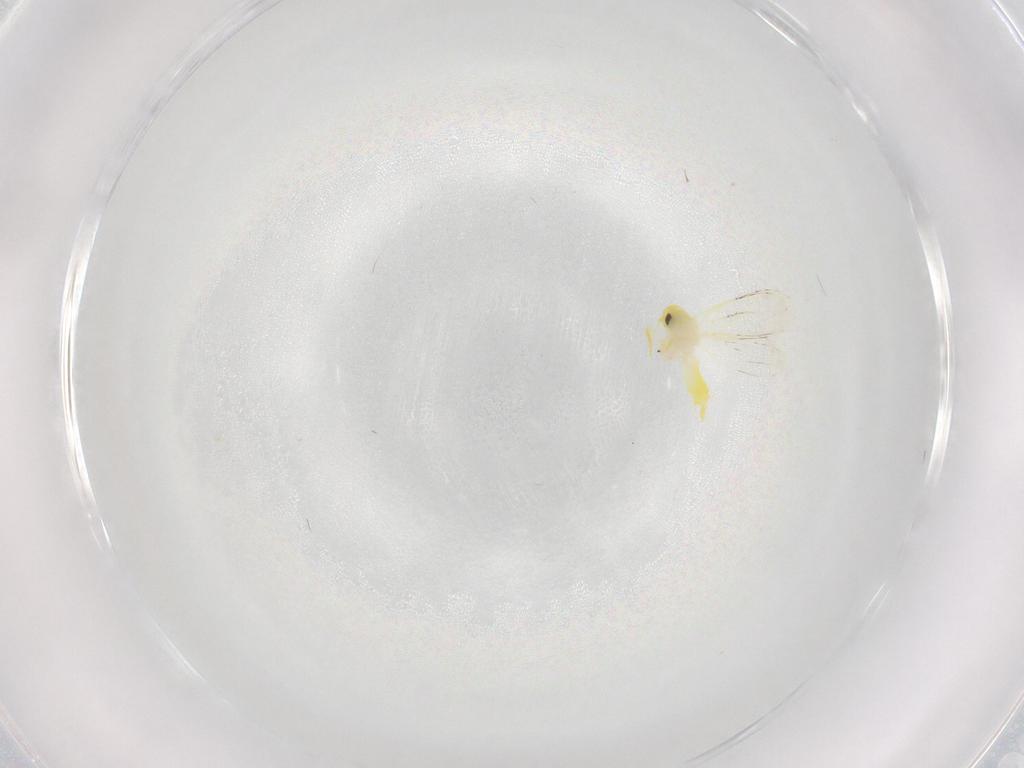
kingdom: Animalia
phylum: Arthropoda
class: Insecta
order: Hemiptera
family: Aleyrodidae
